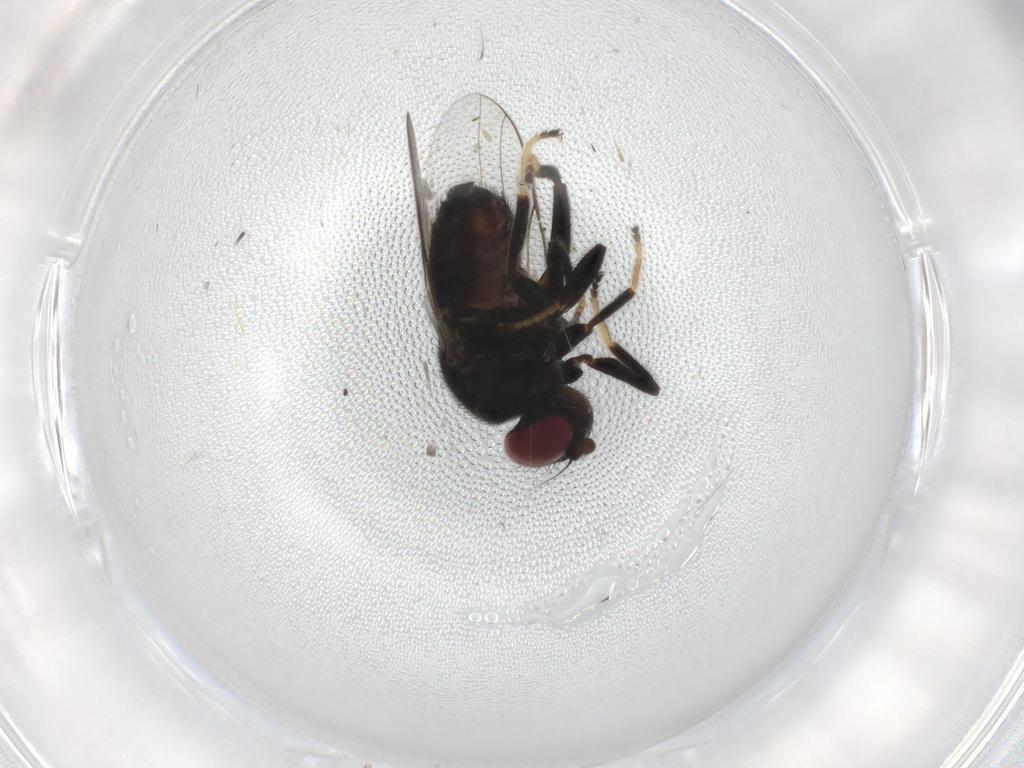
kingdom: Animalia
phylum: Arthropoda
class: Insecta
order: Diptera
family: Chloropidae
